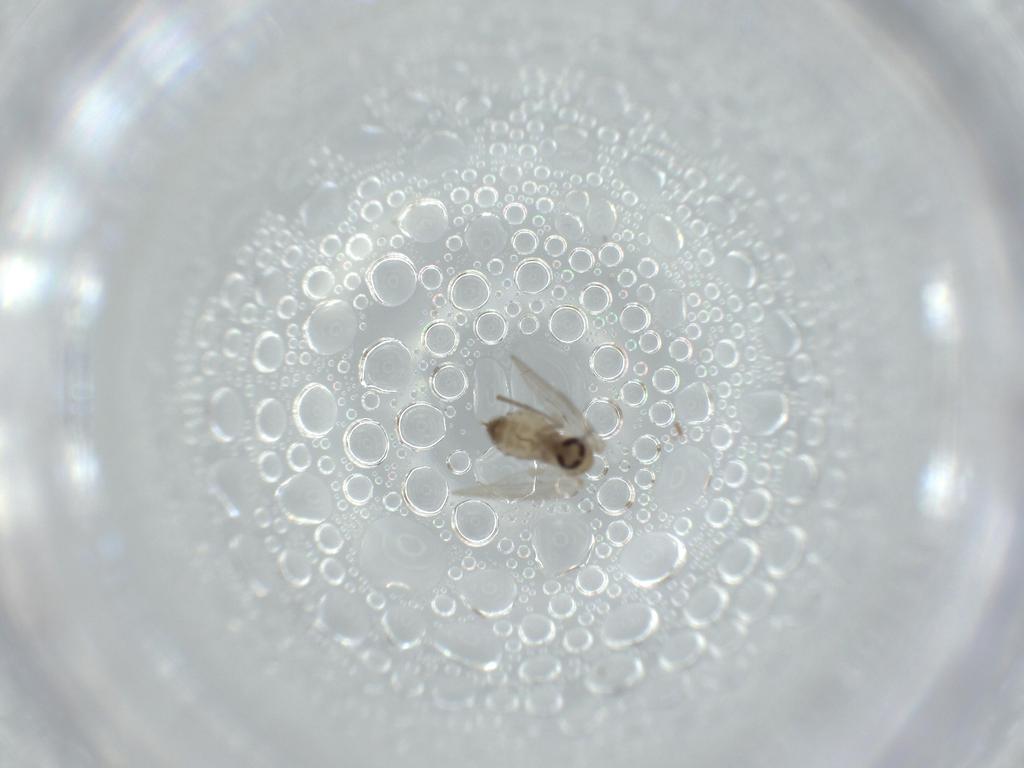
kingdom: Animalia
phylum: Arthropoda
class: Insecta
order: Diptera
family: Psychodidae
